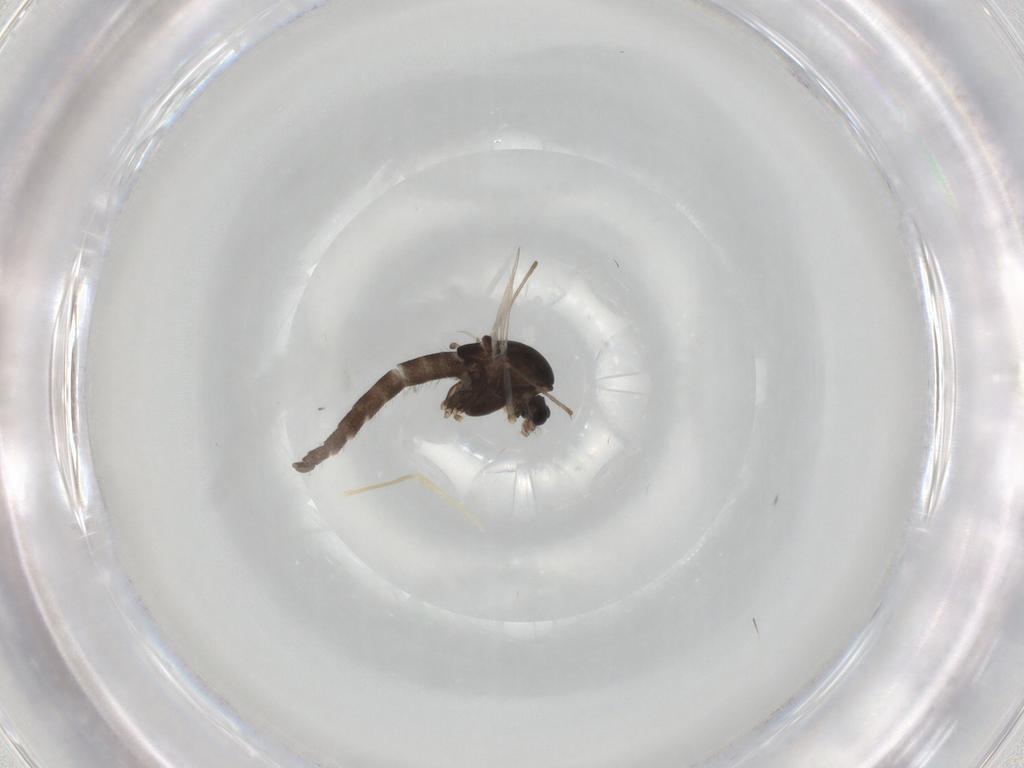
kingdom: Animalia
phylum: Arthropoda
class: Insecta
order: Diptera
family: Chironomidae
